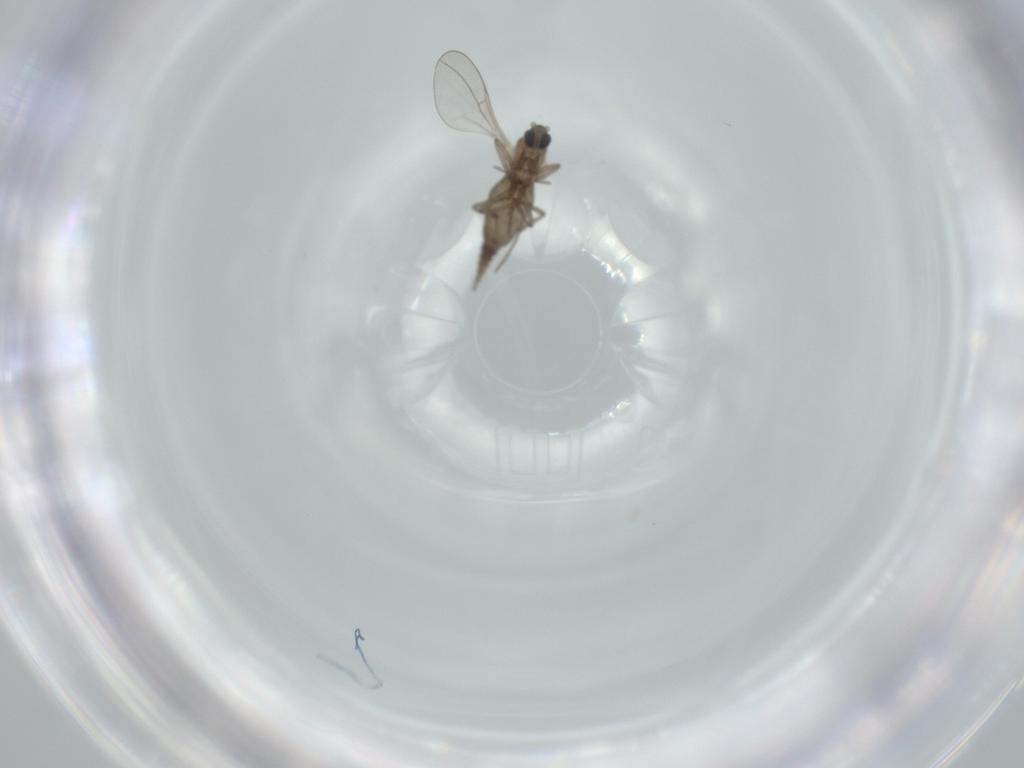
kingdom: Animalia
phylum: Arthropoda
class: Insecta
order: Diptera
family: Cecidomyiidae
